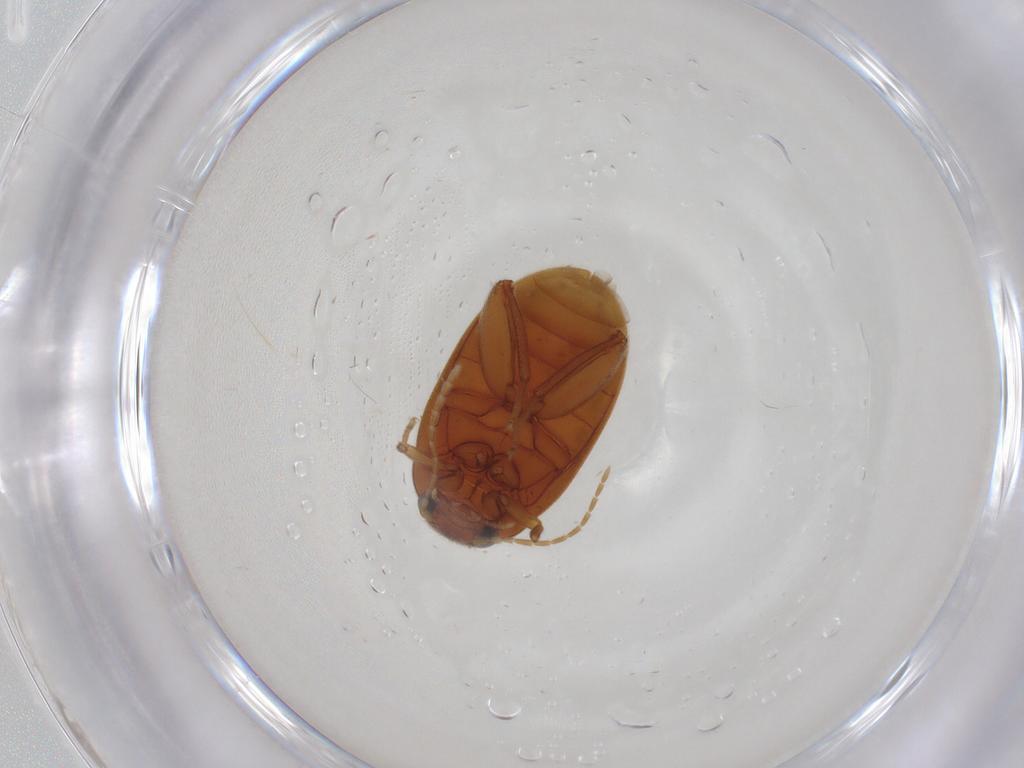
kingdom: Animalia
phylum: Arthropoda
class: Insecta
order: Coleoptera
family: Scirtidae
